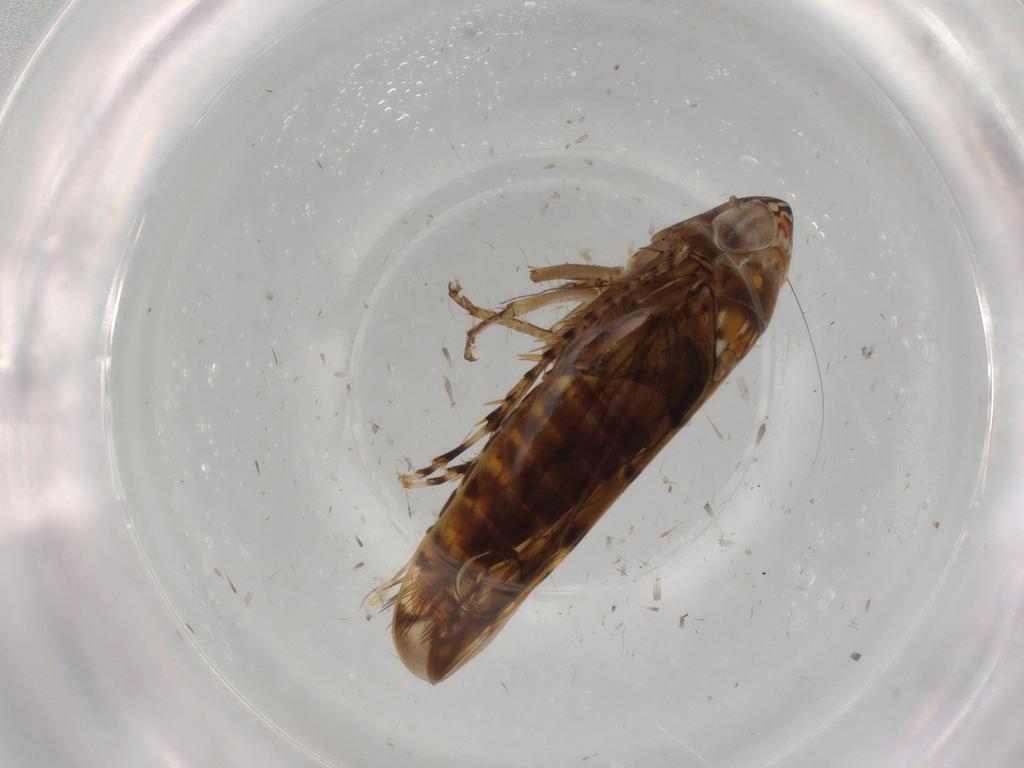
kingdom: Animalia
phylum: Arthropoda
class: Insecta
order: Hemiptera
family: Cicadellidae
